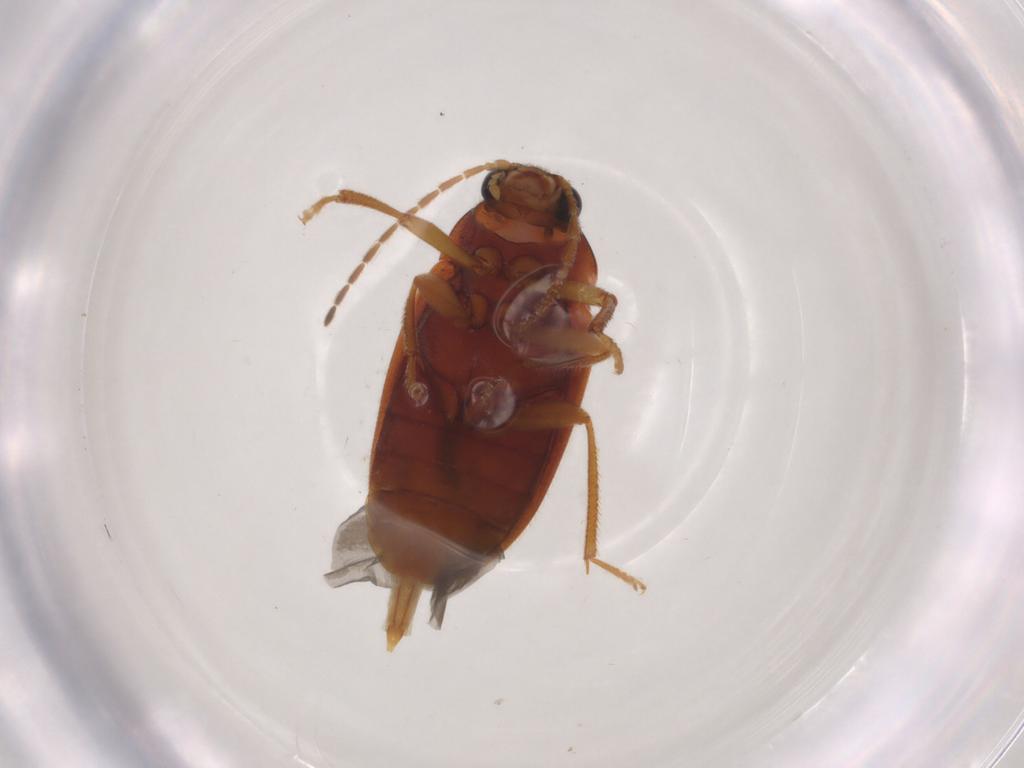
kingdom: Animalia
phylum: Arthropoda
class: Insecta
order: Coleoptera
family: Ptilodactylidae
